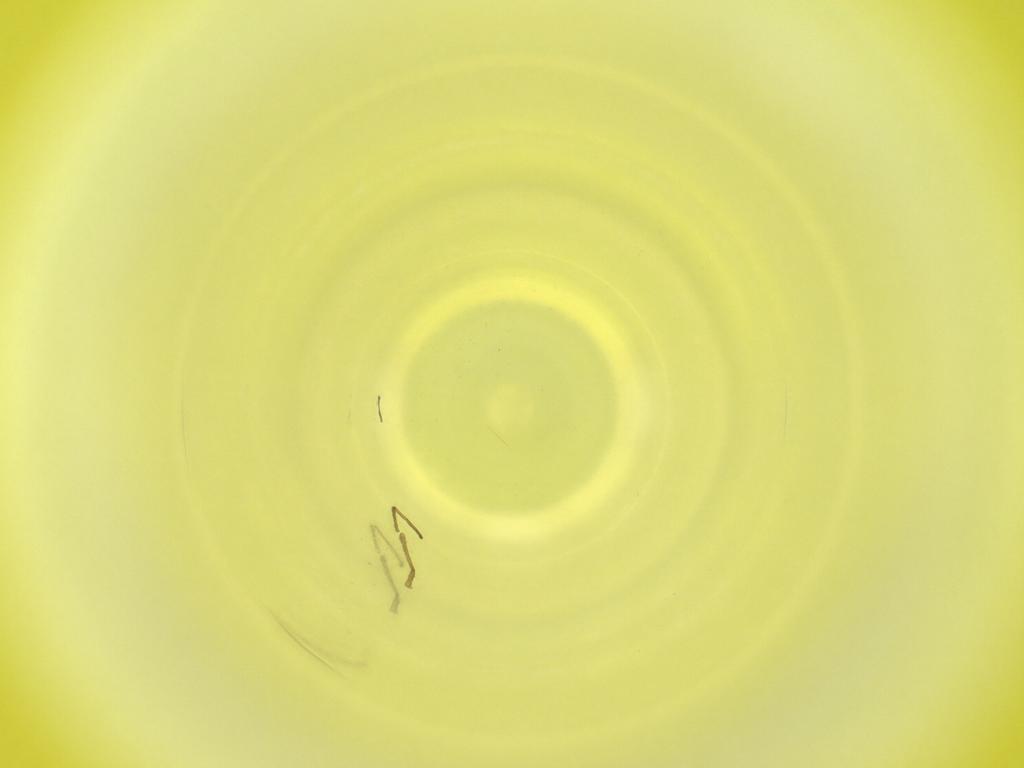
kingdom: Animalia
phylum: Arthropoda
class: Insecta
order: Diptera
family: Cecidomyiidae
